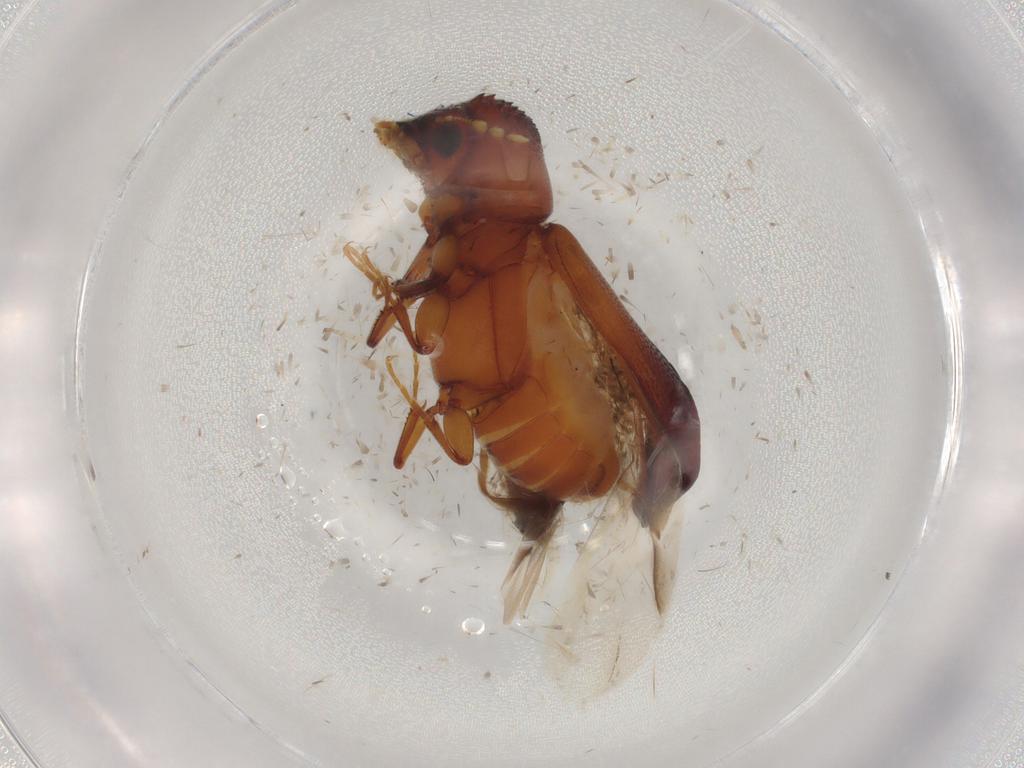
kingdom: Animalia
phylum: Arthropoda
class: Insecta
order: Coleoptera
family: Bostrichidae
